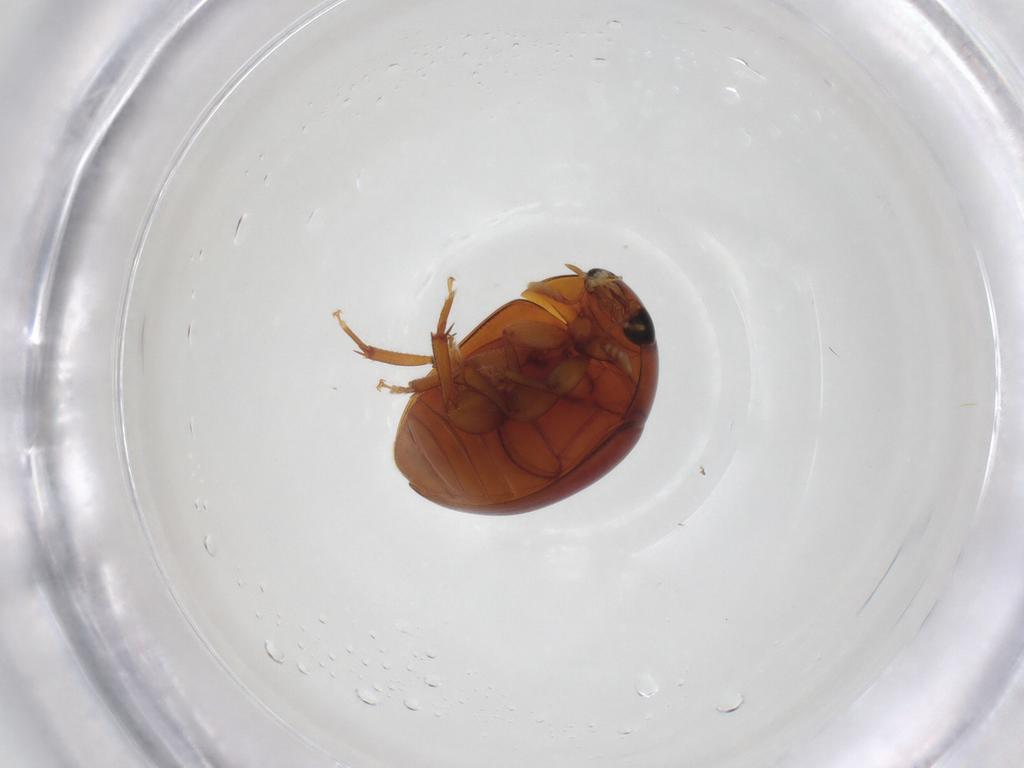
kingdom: Animalia
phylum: Arthropoda
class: Insecta
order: Coleoptera
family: Phalacridae
